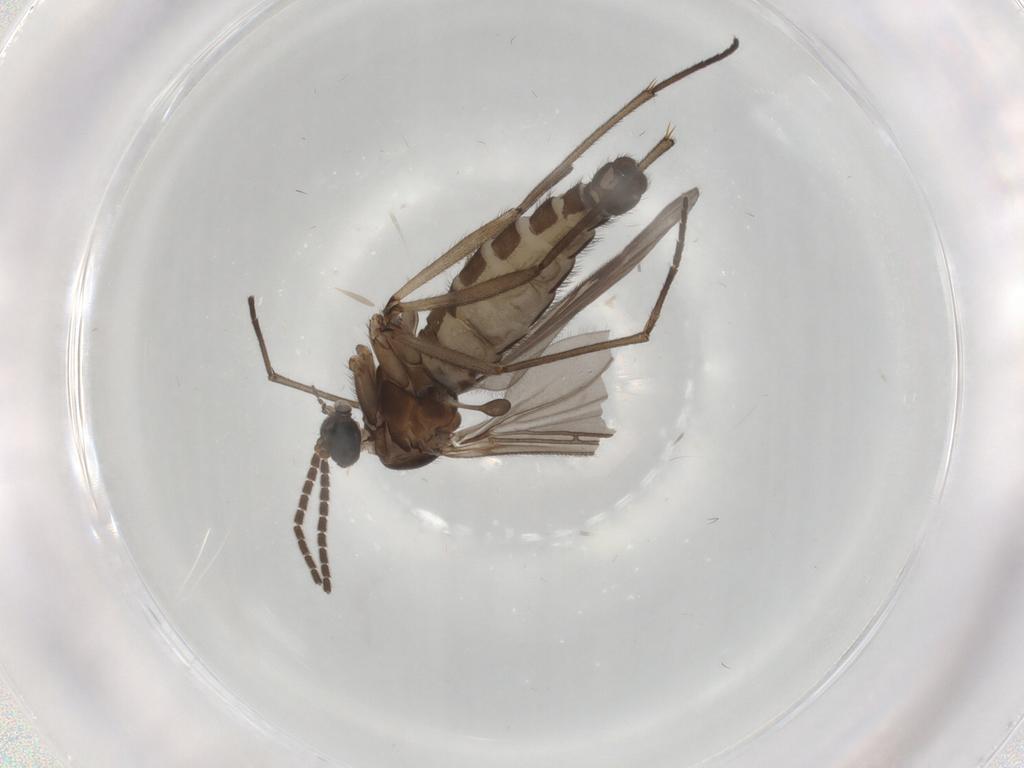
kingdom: Animalia
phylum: Arthropoda
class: Insecta
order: Diptera
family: Sciaridae
